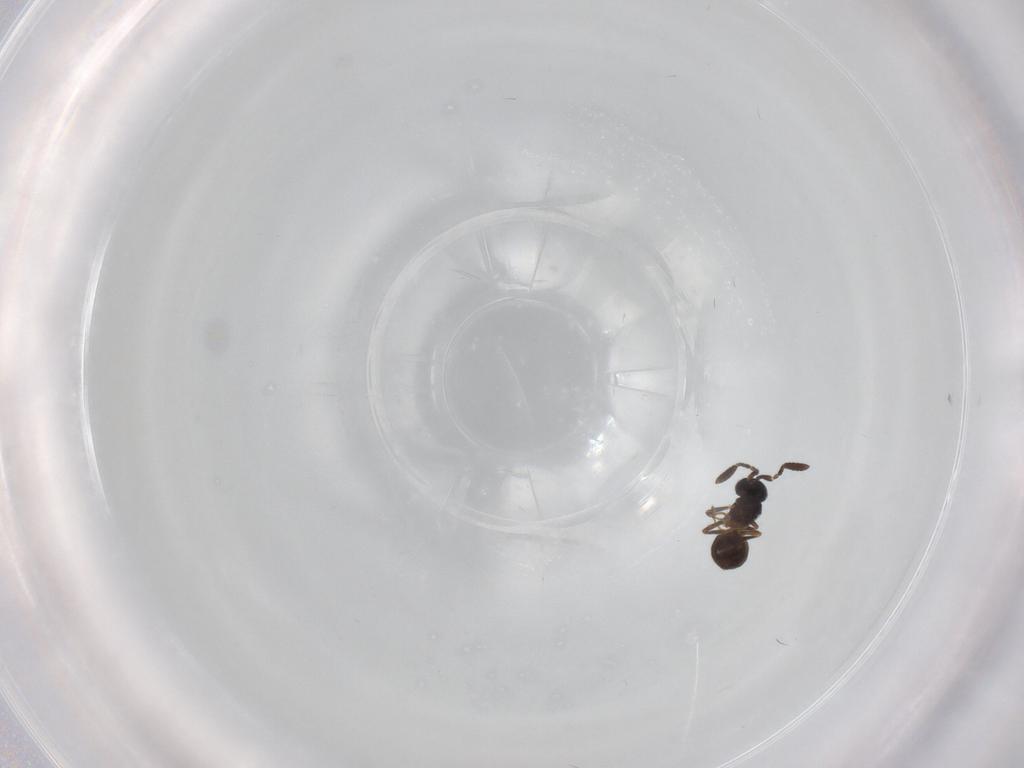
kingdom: Animalia
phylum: Arthropoda
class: Insecta
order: Hymenoptera
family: Scelionidae
